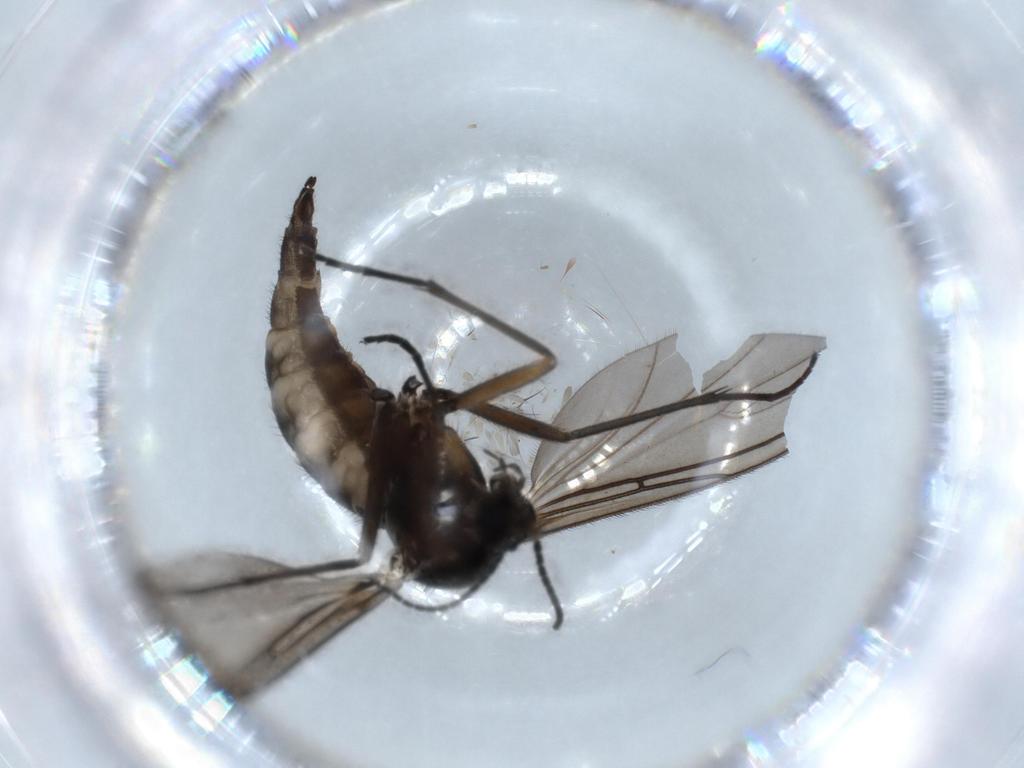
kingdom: Animalia
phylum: Arthropoda
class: Insecta
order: Diptera
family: Sciaridae
